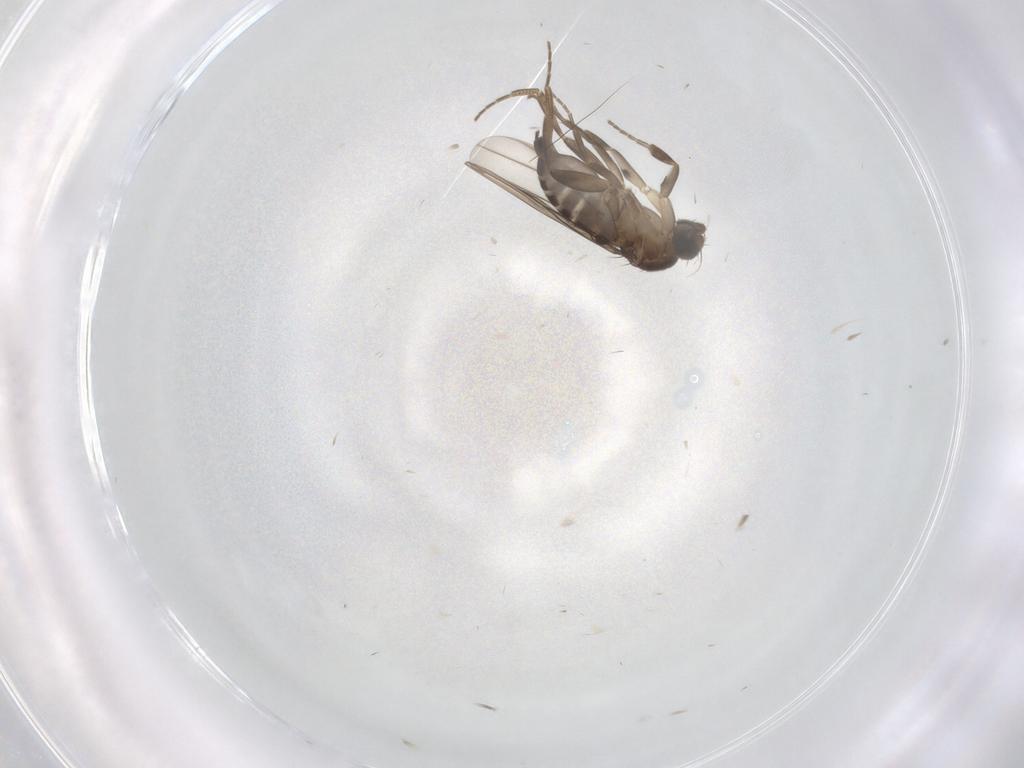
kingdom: Animalia
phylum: Arthropoda
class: Insecta
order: Diptera
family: Phoridae
